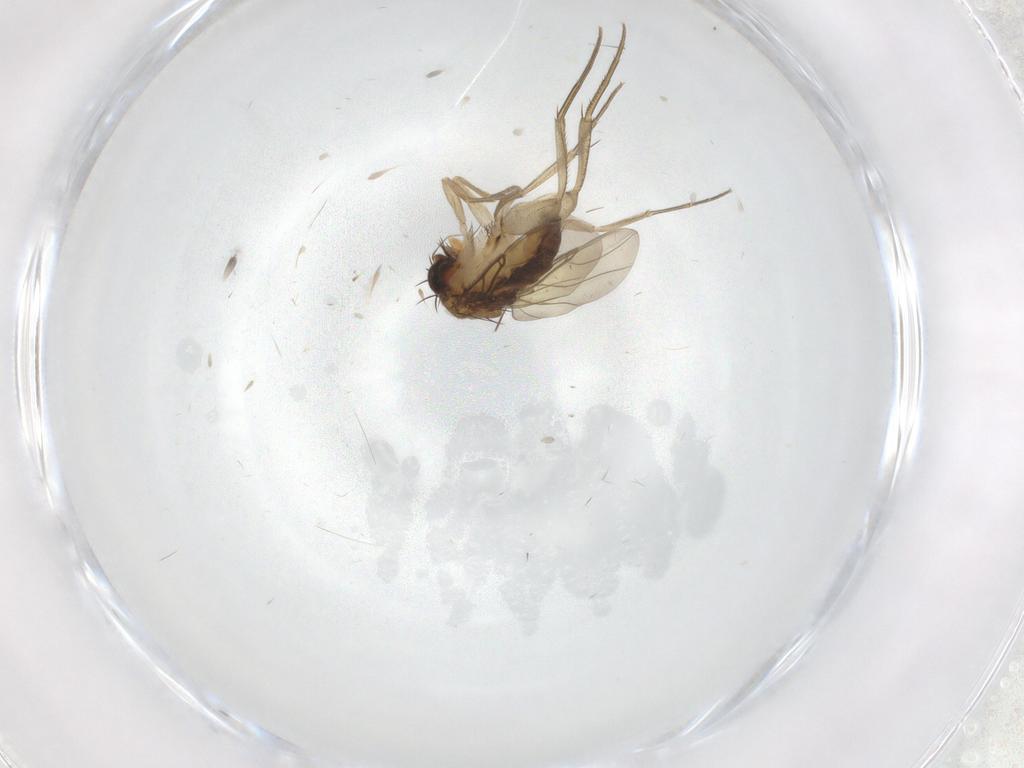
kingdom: Animalia
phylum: Arthropoda
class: Insecta
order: Diptera
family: Phoridae
